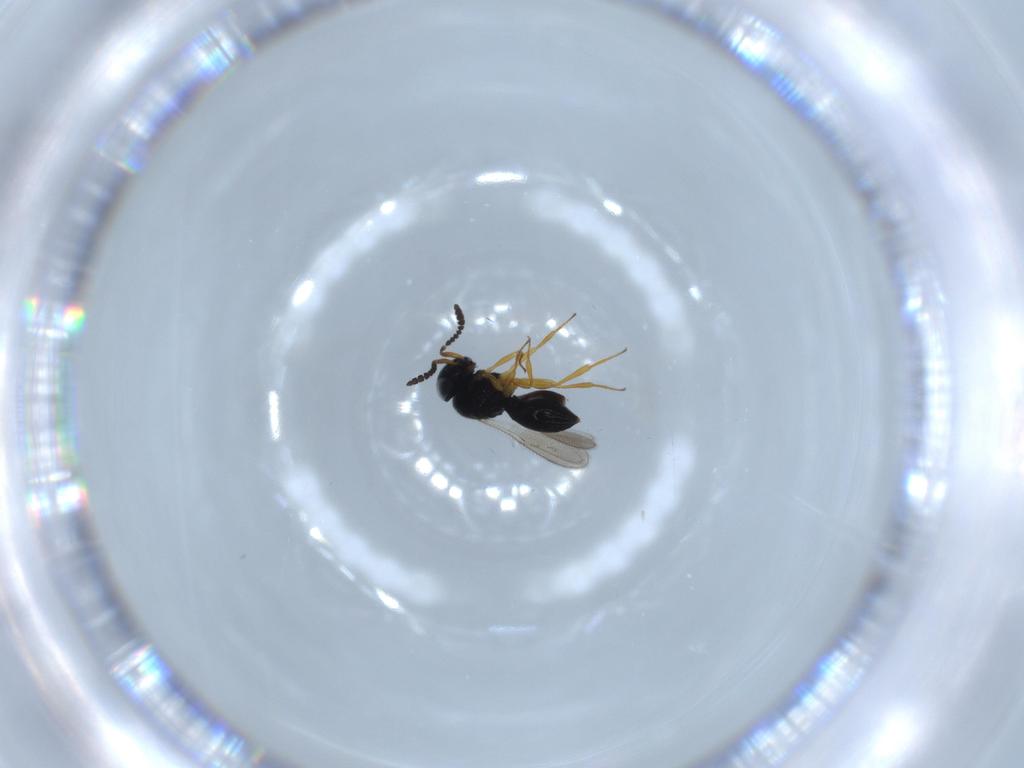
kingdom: Animalia
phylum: Arthropoda
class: Insecta
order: Hymenoptera
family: Scelionidae
